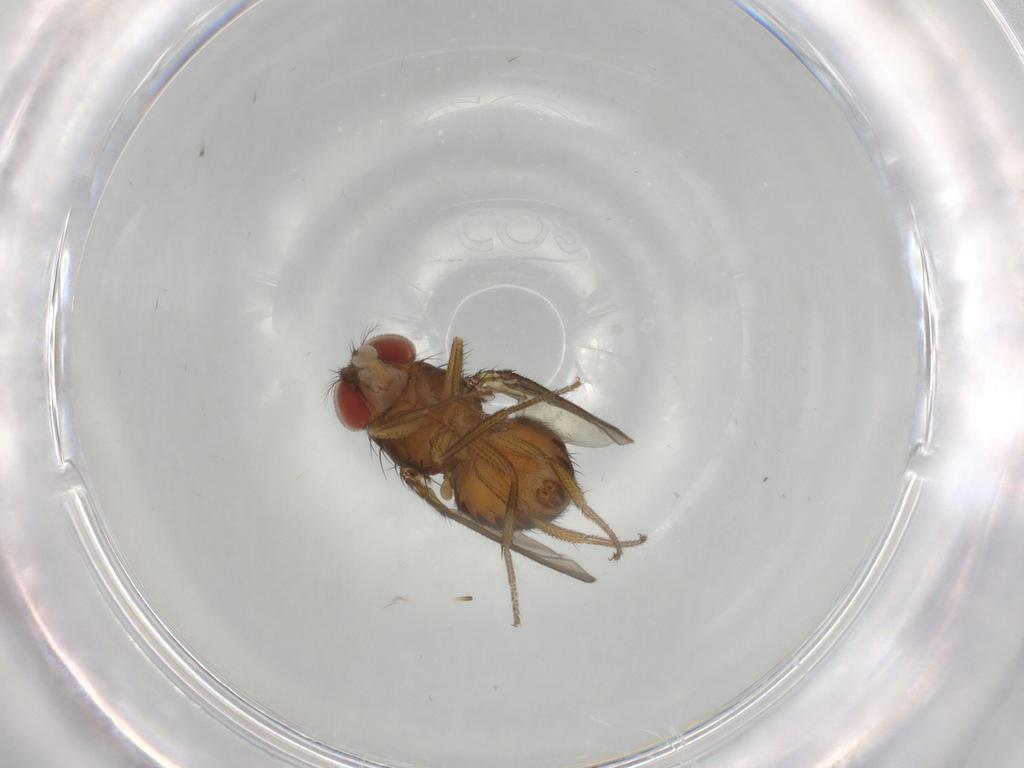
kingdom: Animalia
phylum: Arthropoda
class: Insecta
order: Diptera
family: Drosophilidae
